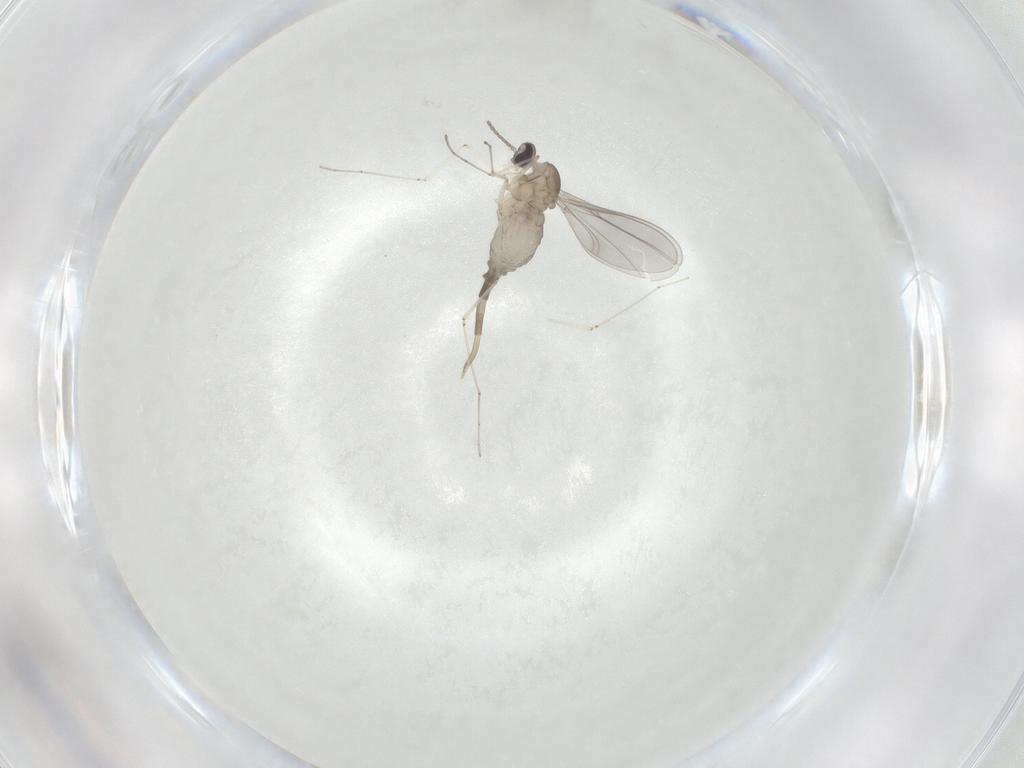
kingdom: Animalia
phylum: Arthropoda
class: Insecta
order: Diptera
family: Cecidomyiidae
